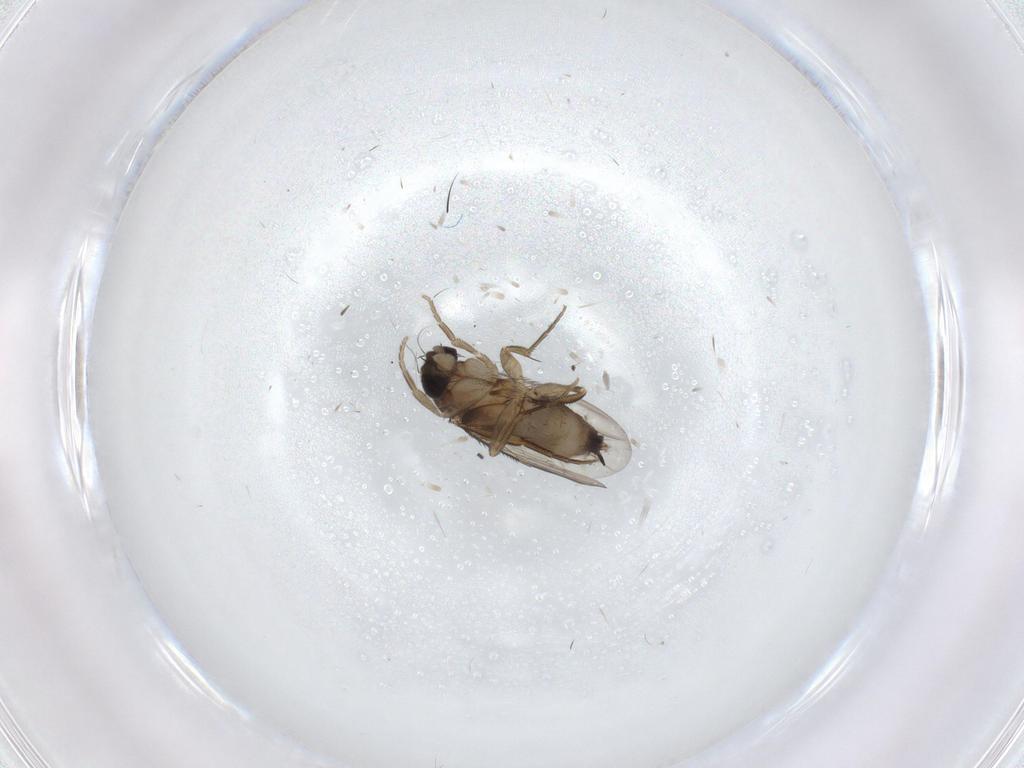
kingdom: Animalia
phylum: Arthropoda
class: Insecta
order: Diptera
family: Phoridae
